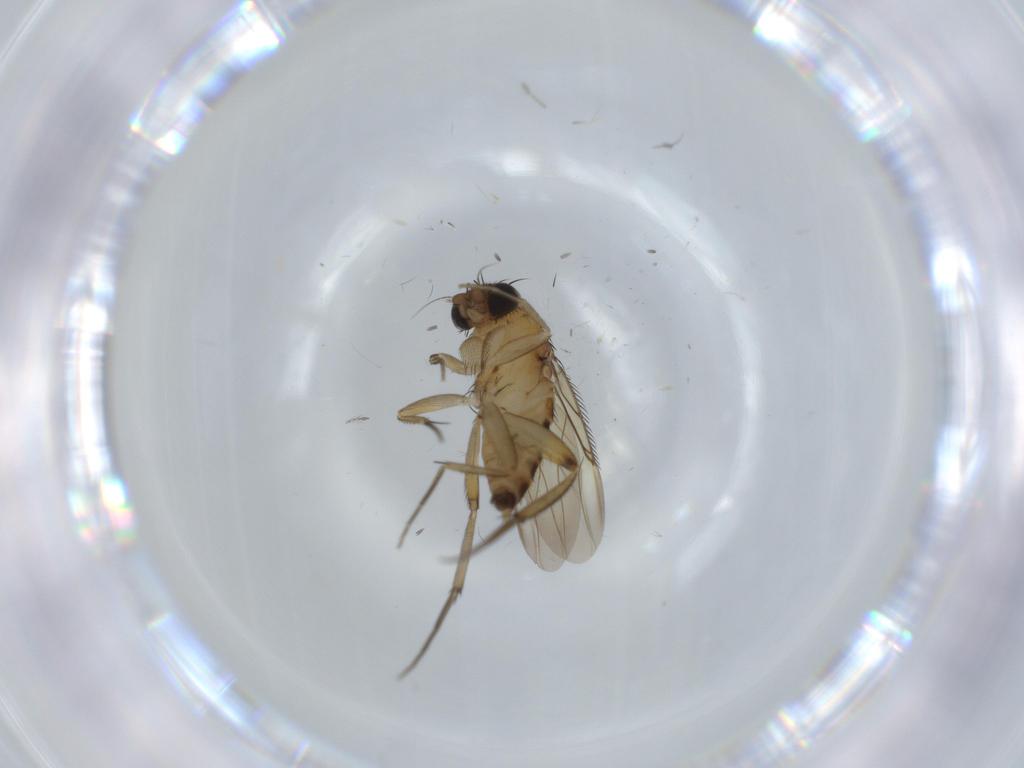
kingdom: Animalia
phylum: Arthropoda
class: Insecta
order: Diptera
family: Phoridae
